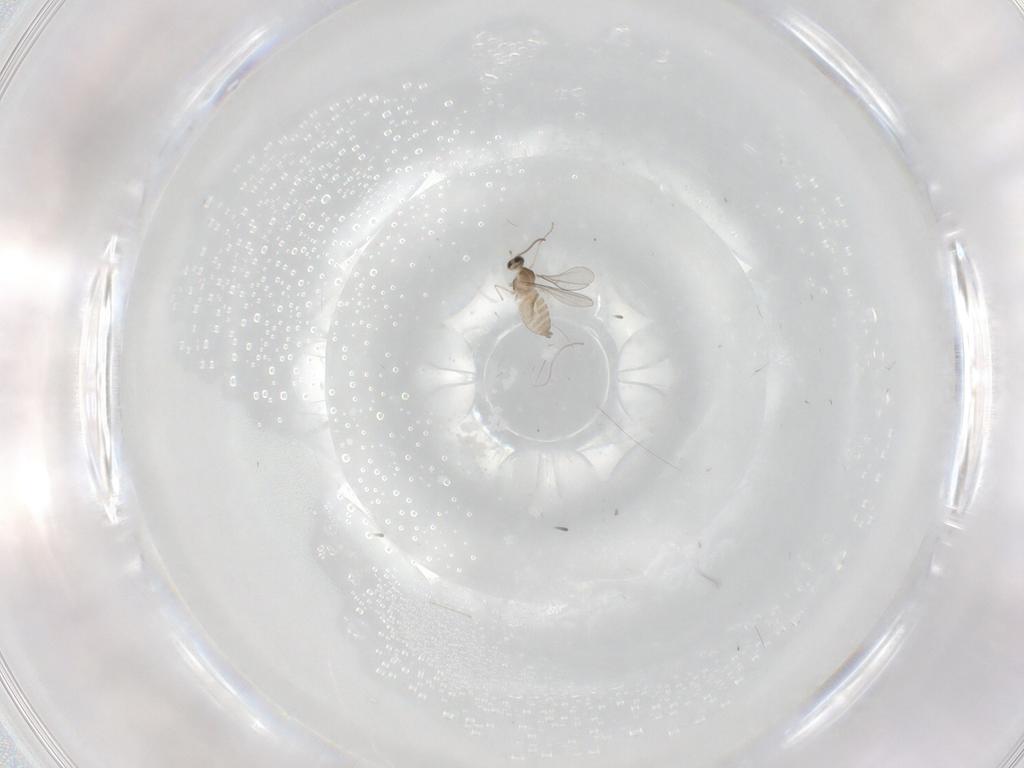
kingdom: Animalia
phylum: Arthropoda
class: Insecta
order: Diptera
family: Cecidomyiidae
